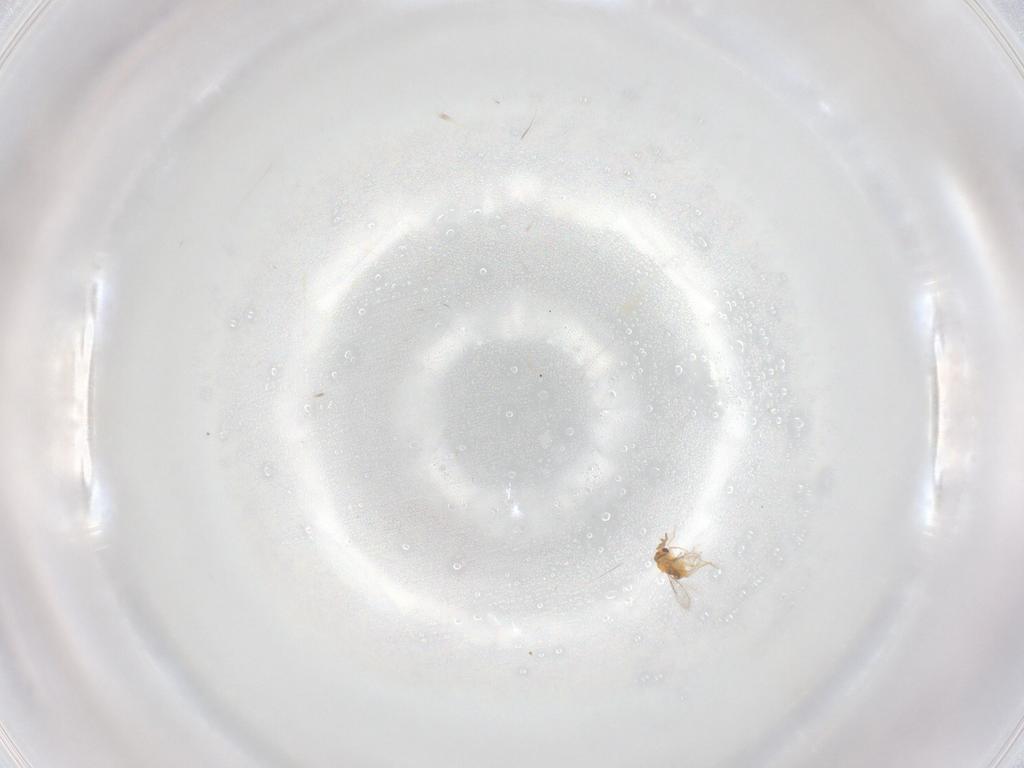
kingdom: Animalia
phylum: Arthropoda
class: Insecta
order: Hymenoptera
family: Aphelinidae
